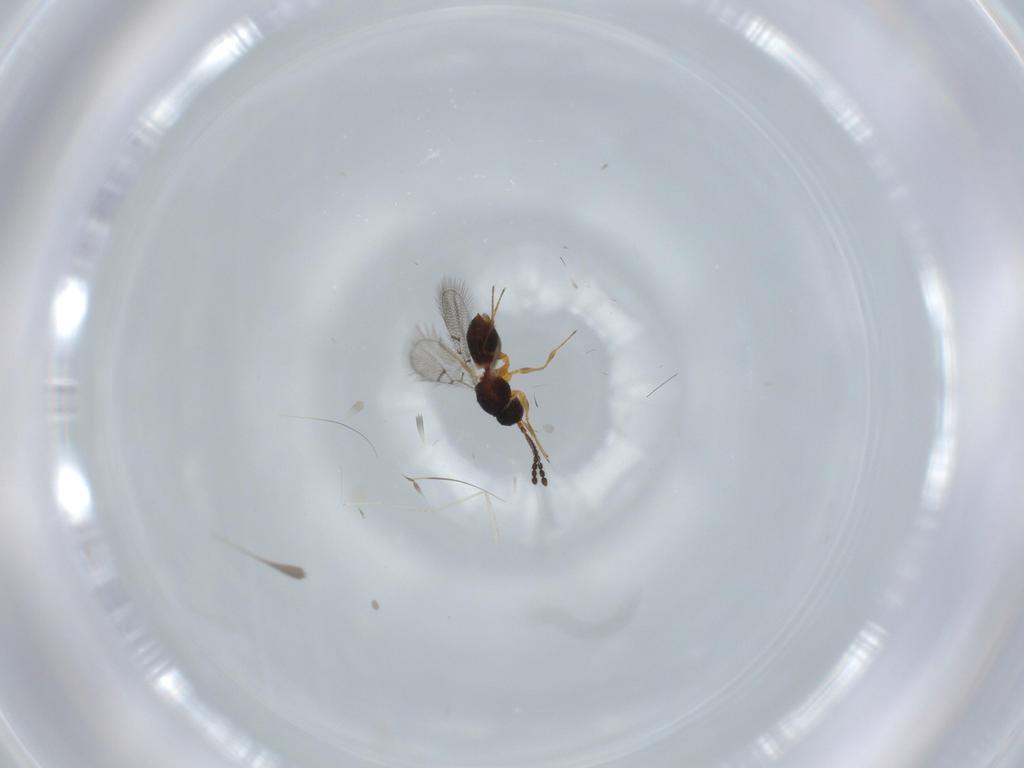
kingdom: Animalia
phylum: Arthropoda
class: Insecta
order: Hymenoptera
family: Figitidae
